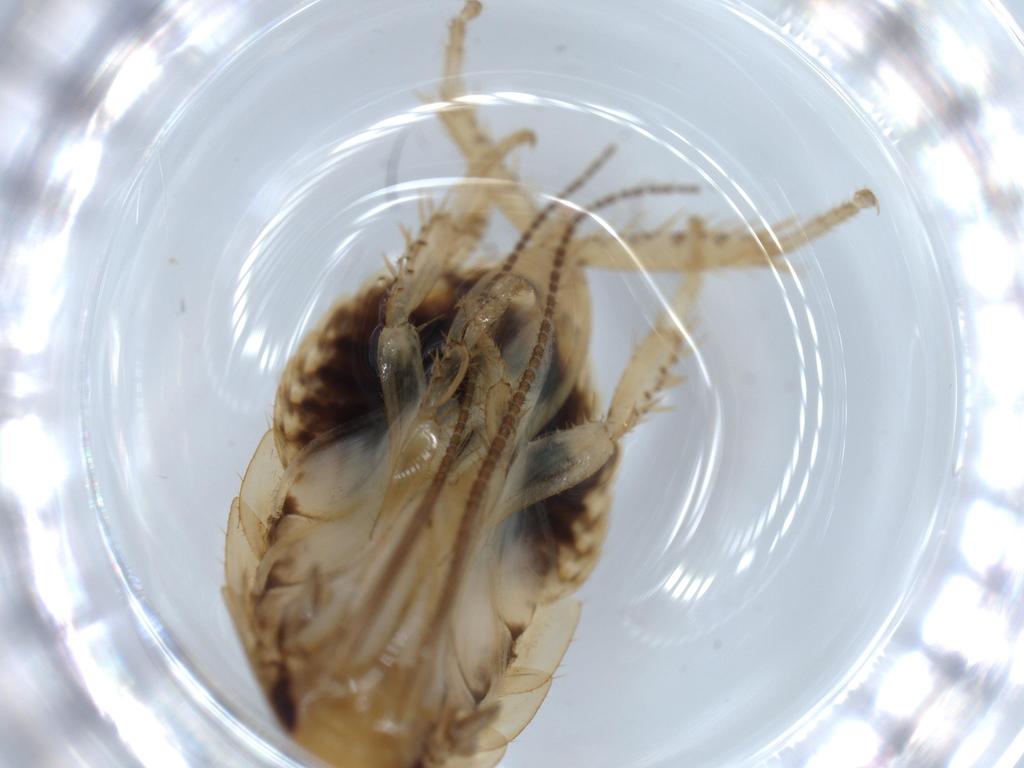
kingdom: Animalia
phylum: Arthropoda
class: Insecta
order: Blattodea
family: Ectobiidae
